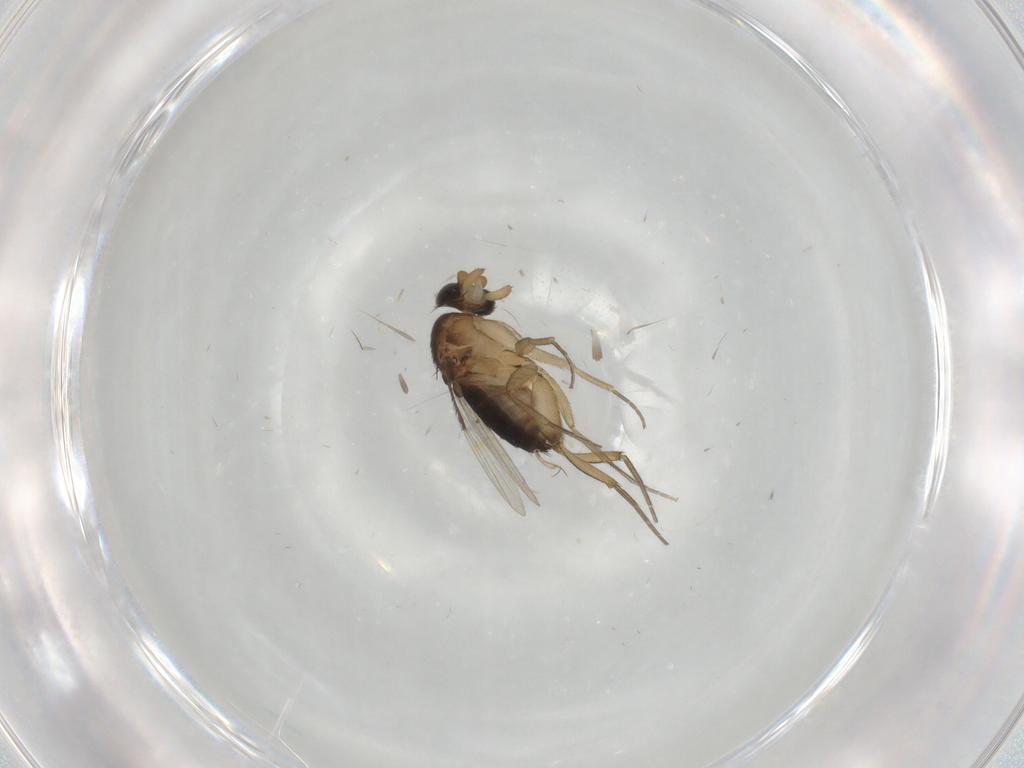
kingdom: Animalia
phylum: Arthropoda
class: Insecta
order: Diptera
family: Phoridae
